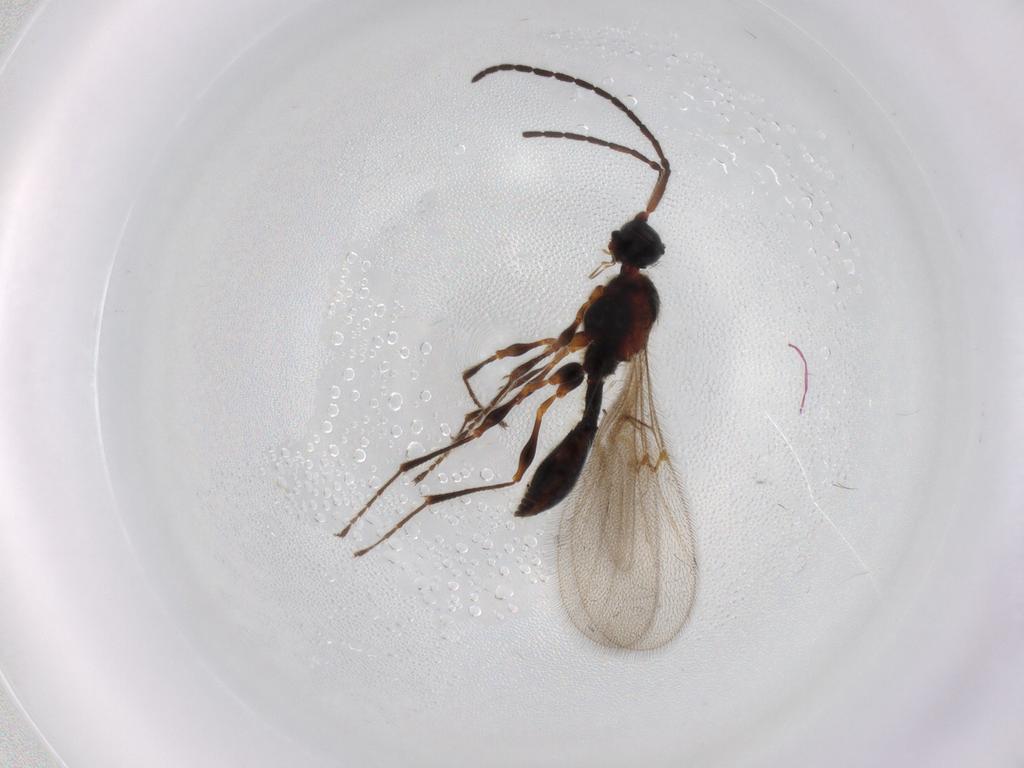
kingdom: Animalia
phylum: Arthropoda
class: Insecta
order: Hymenoptera
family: Diapriidae
